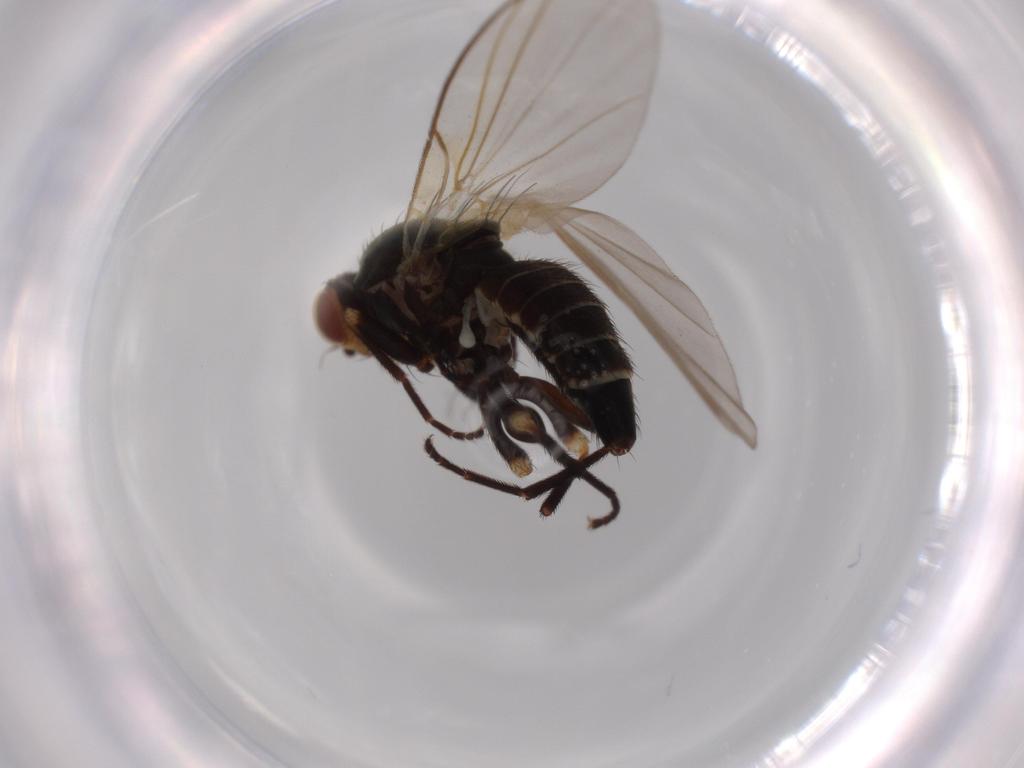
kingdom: Animalia
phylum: Arthropoda
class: Insecta
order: Diptera
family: Agromyzidae
